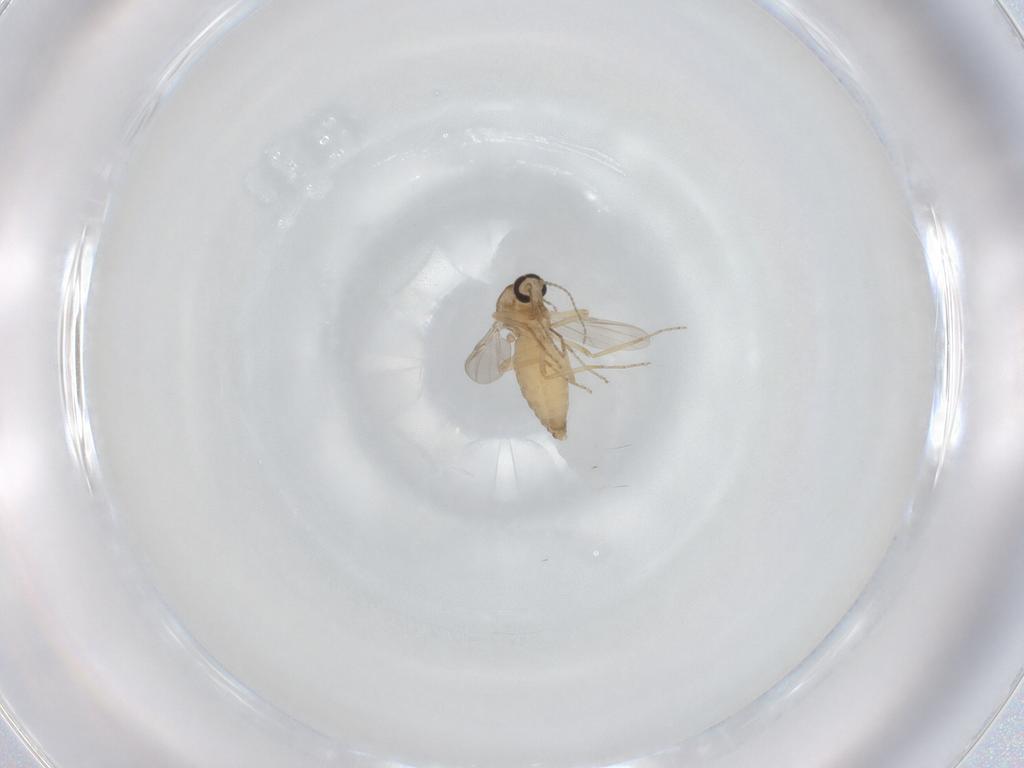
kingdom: Animalia
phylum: Arthropoda
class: Insecta
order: Diptera
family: Ceratopogonidae
